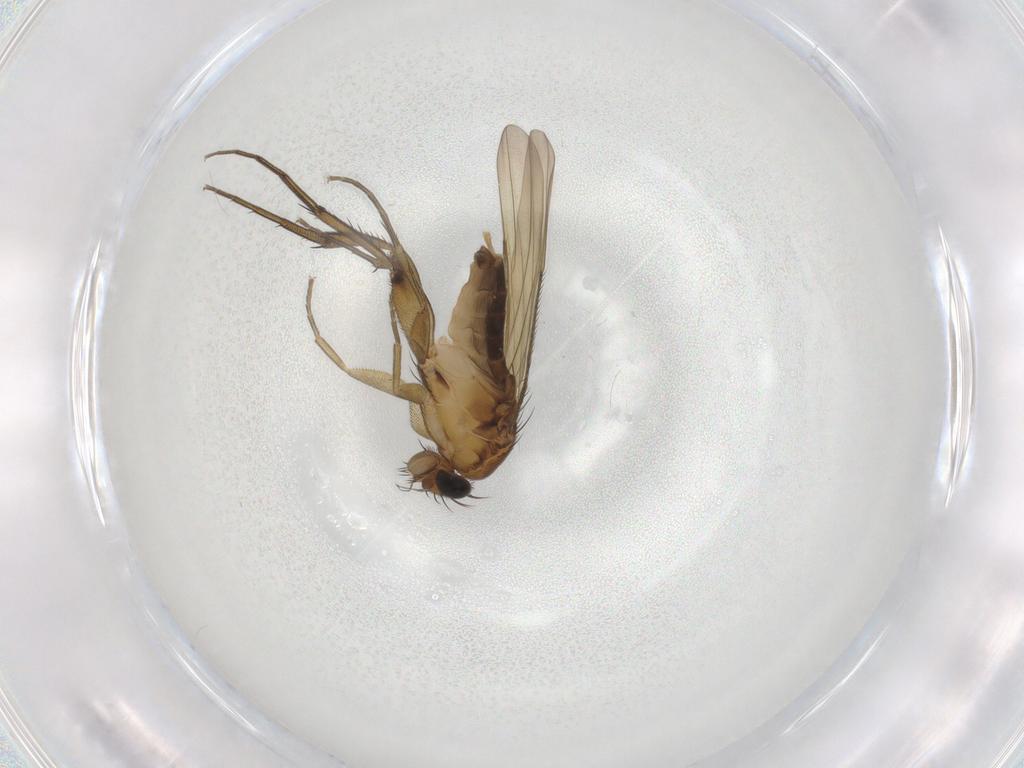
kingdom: Animalia
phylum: Arthropoda
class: Insecta
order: Diptera
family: Phoridae
